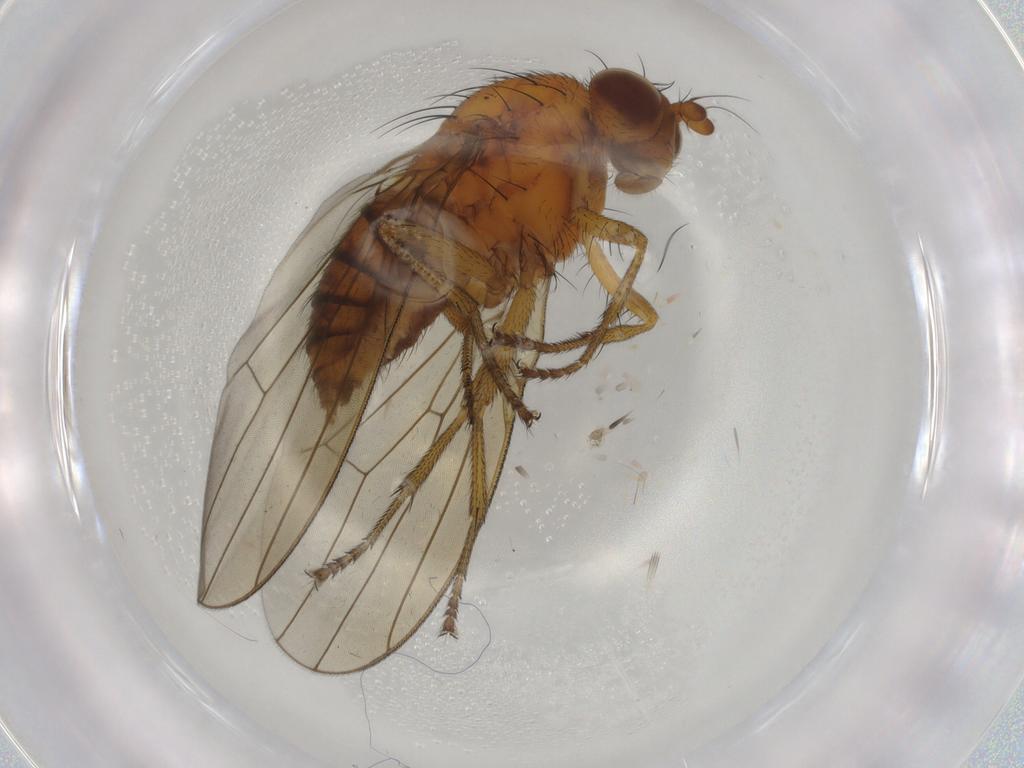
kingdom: Animalia
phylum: Arthropoda
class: Insecta
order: Diptera
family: Lauxaniidae
